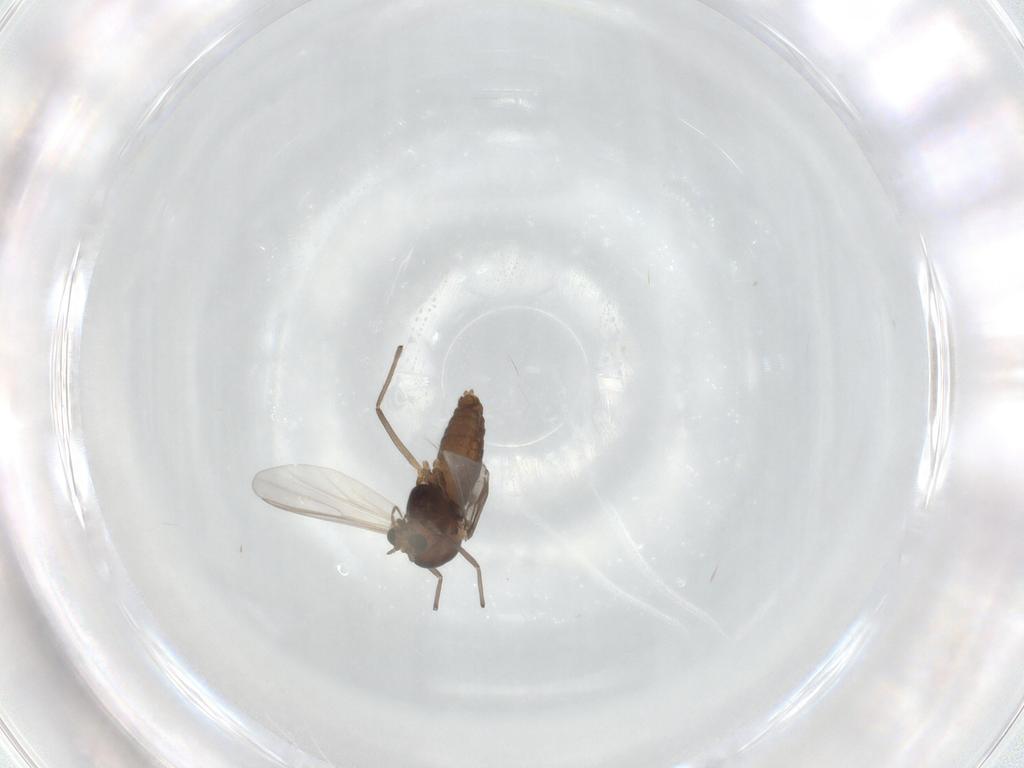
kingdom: Animalia
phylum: Arthropoda
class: Insecta
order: Diptera
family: Chironomidae
